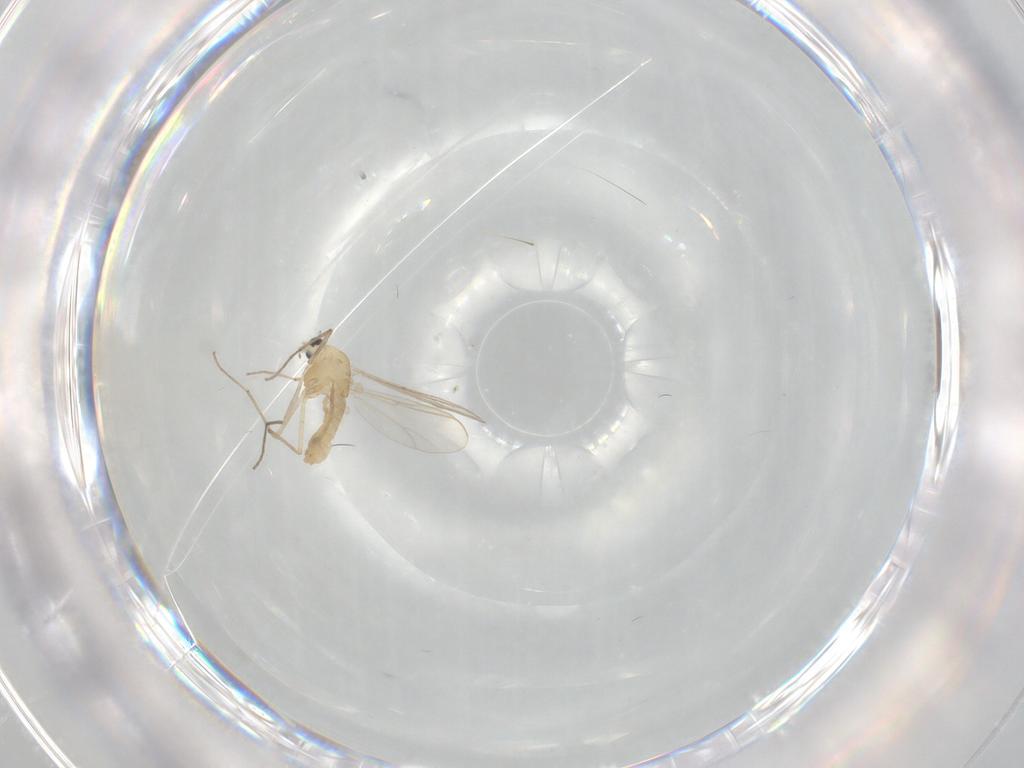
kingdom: Animalia
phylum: Arthropoda
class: Insecta
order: Diptera
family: Chironomidae
